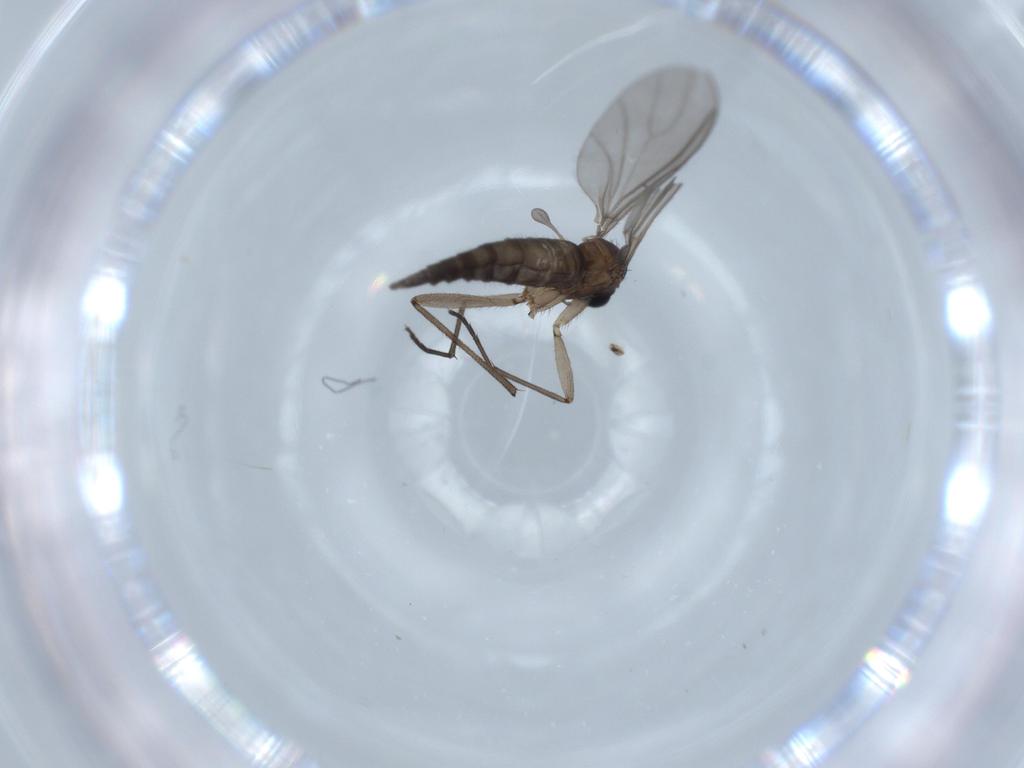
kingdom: Animalia
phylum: Arthropoda
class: Insecta
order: Diptera
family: Sciaridae
